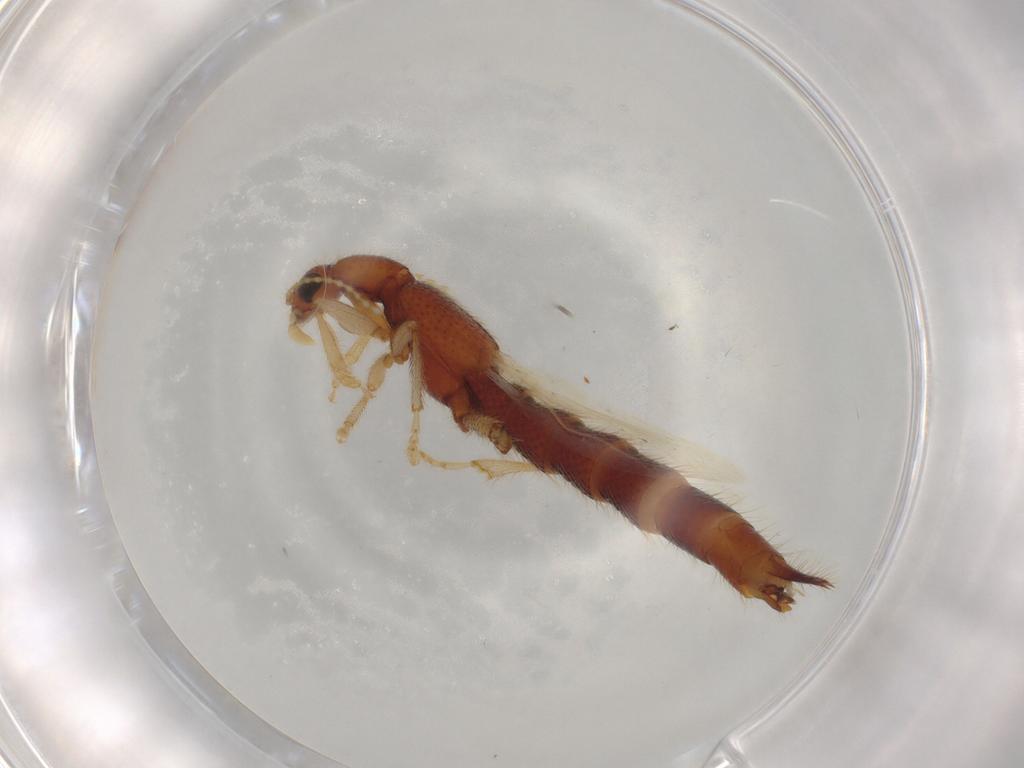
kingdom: Animalia
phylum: Arthropoda
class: Insecta
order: Coleoptera
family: Staphylinidae
